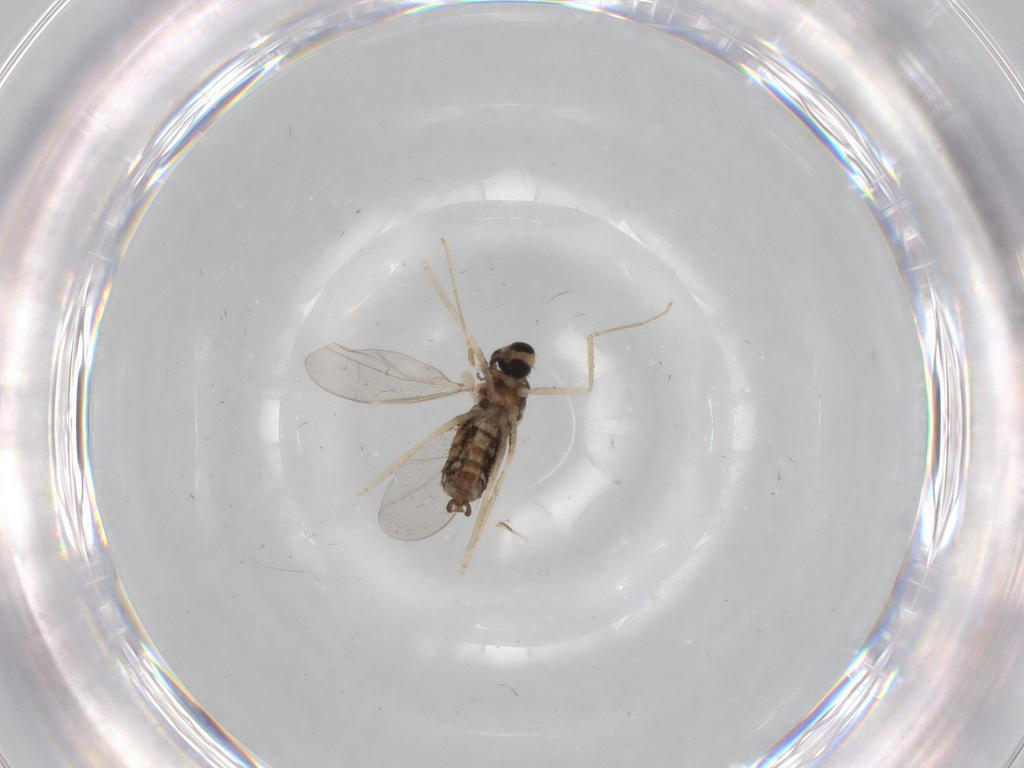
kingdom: Animalia
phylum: Arthropoda
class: Insecta
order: Diptera
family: Cecidomyiidae
